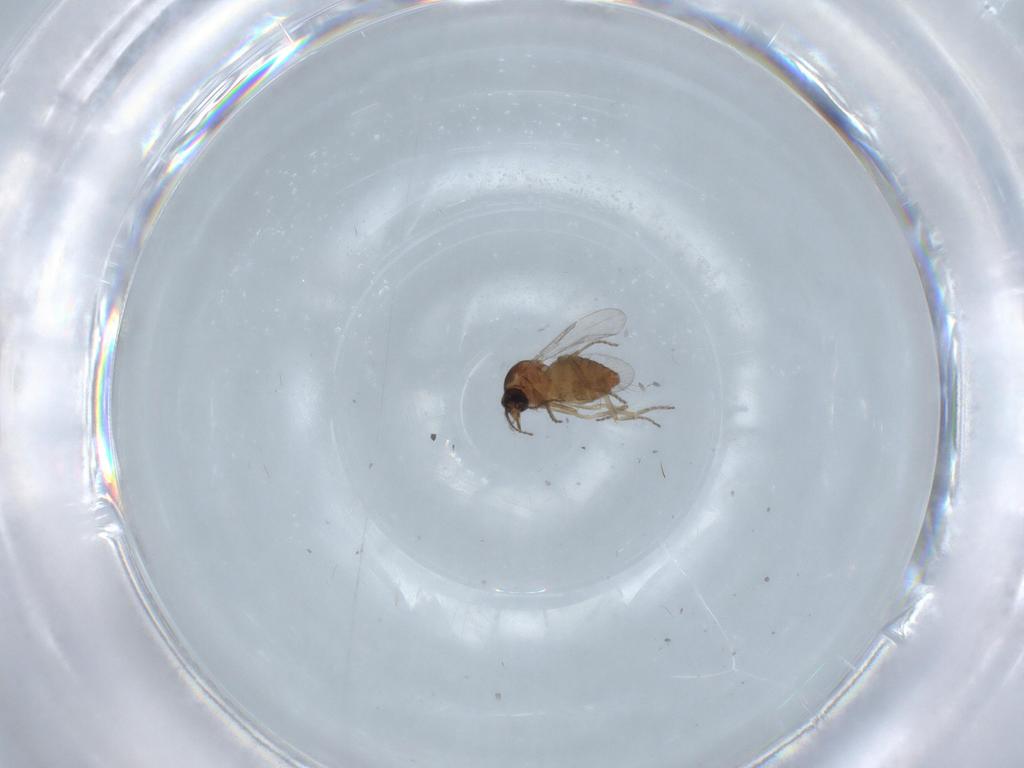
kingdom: Animalia
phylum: Arthropoda
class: Insecta
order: Diptera
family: Ceratopogonidae
